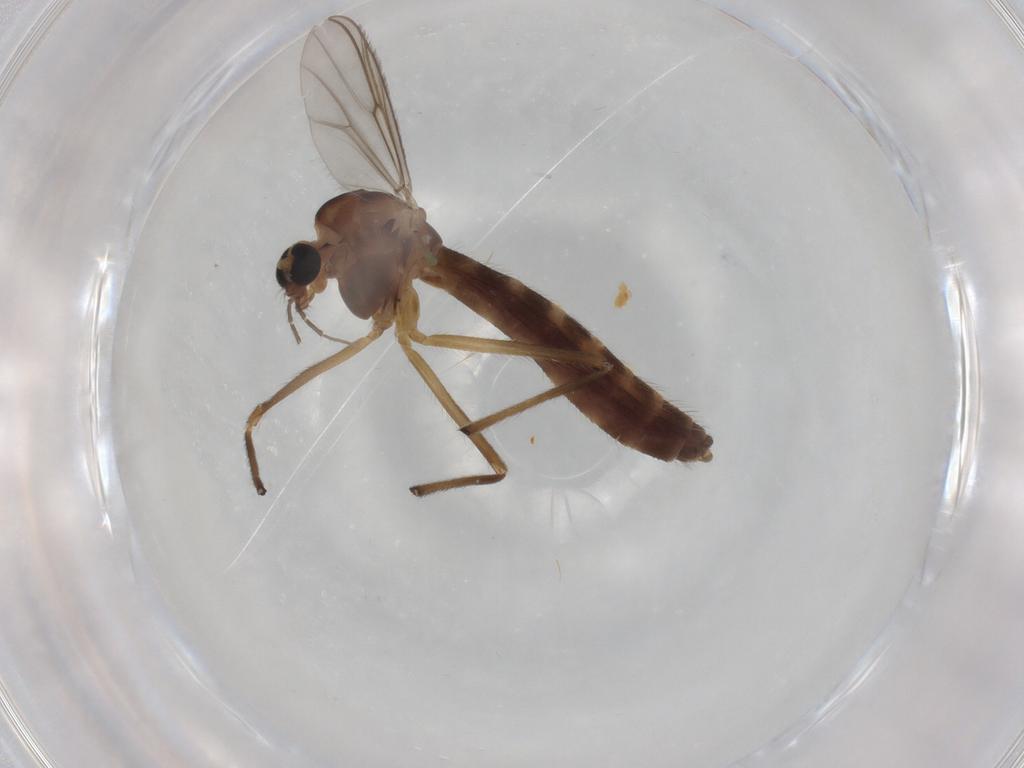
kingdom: Animalia
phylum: Arthropoda
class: Insecta
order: Diptera
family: Chironomidae
